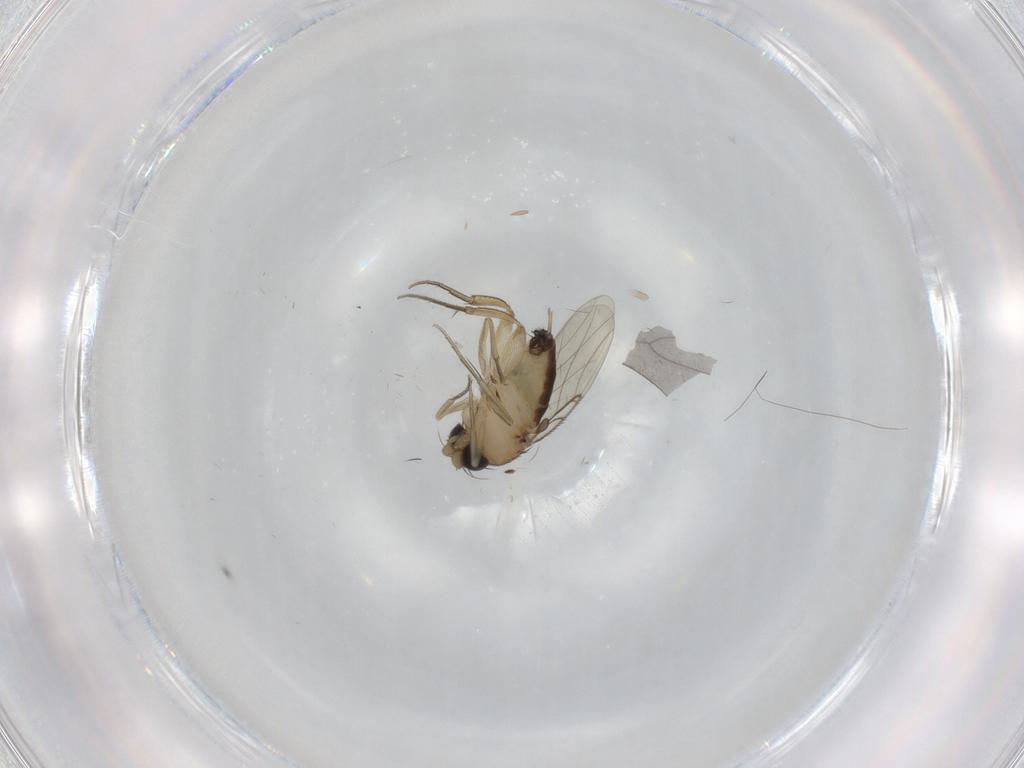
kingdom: Animalia
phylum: Arthropoda
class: Insecta
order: Diptera
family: Phoridae
